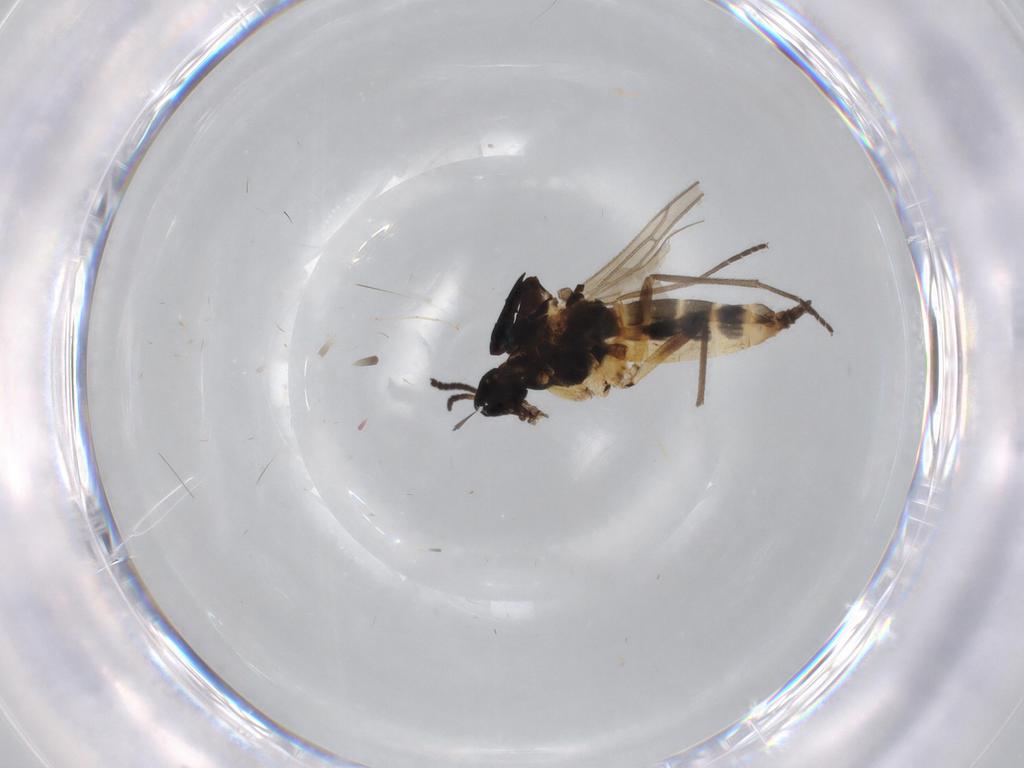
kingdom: Animalia
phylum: Arthropoda
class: Insecta
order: Diptera
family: Sciaridae
